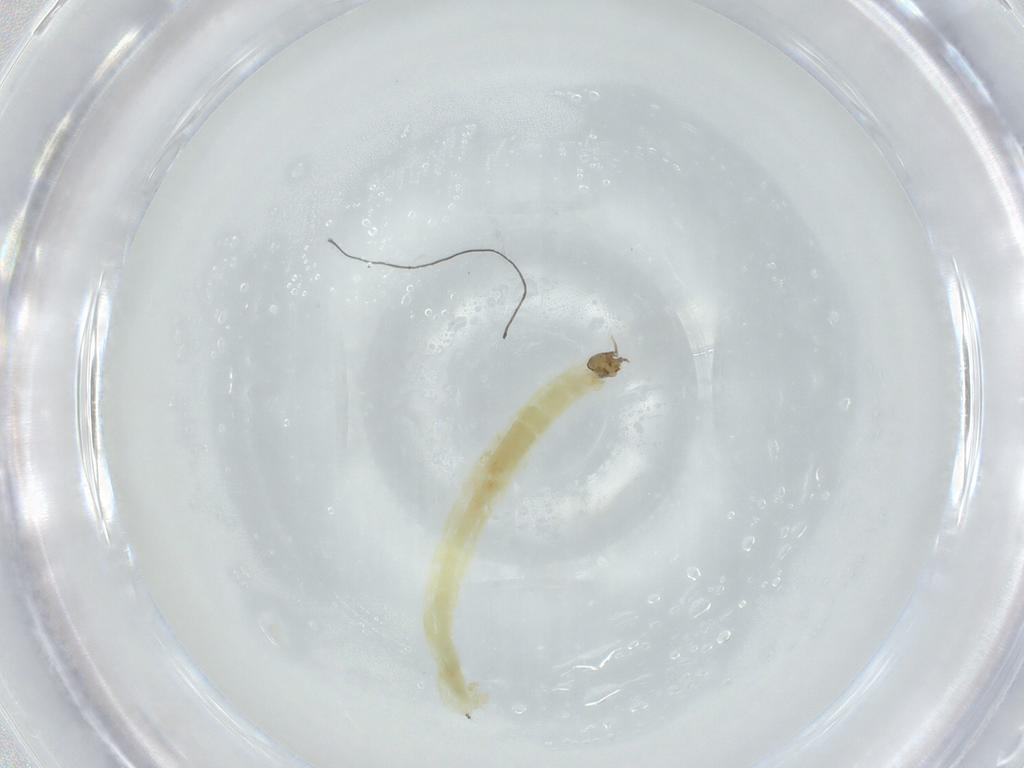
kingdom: Animalia
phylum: Arthropoda
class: Insecta
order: Diptera
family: Chironomidae
